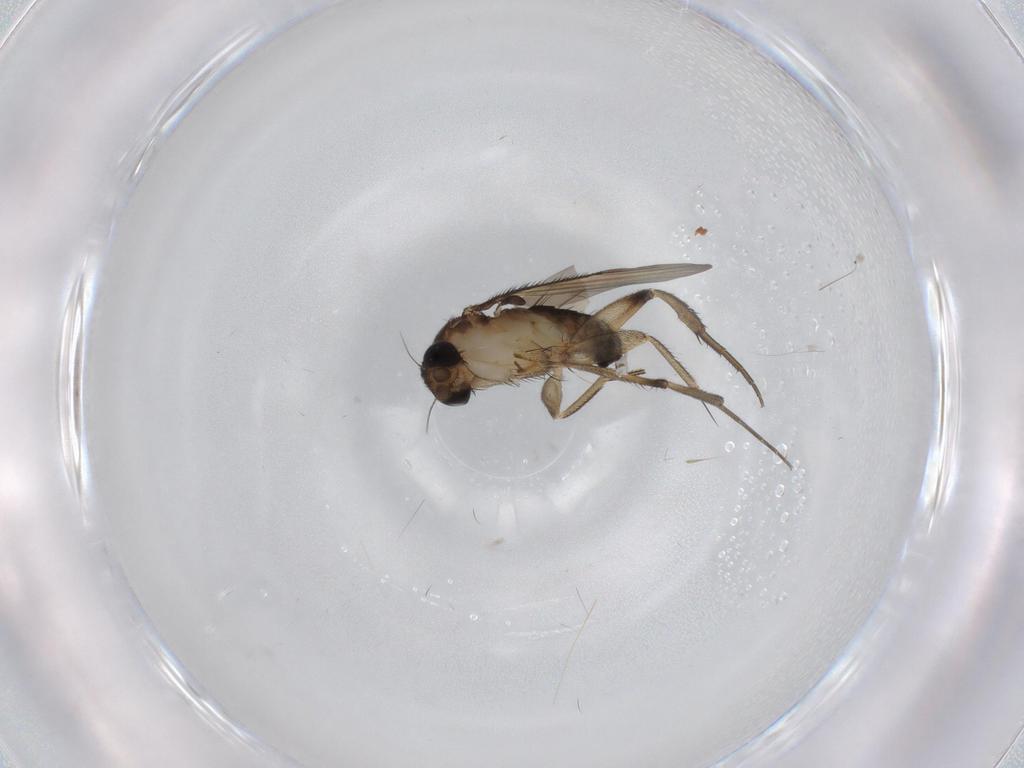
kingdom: Animalia
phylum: Arthropoda
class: Insecta
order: Diptera
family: Phoridae
